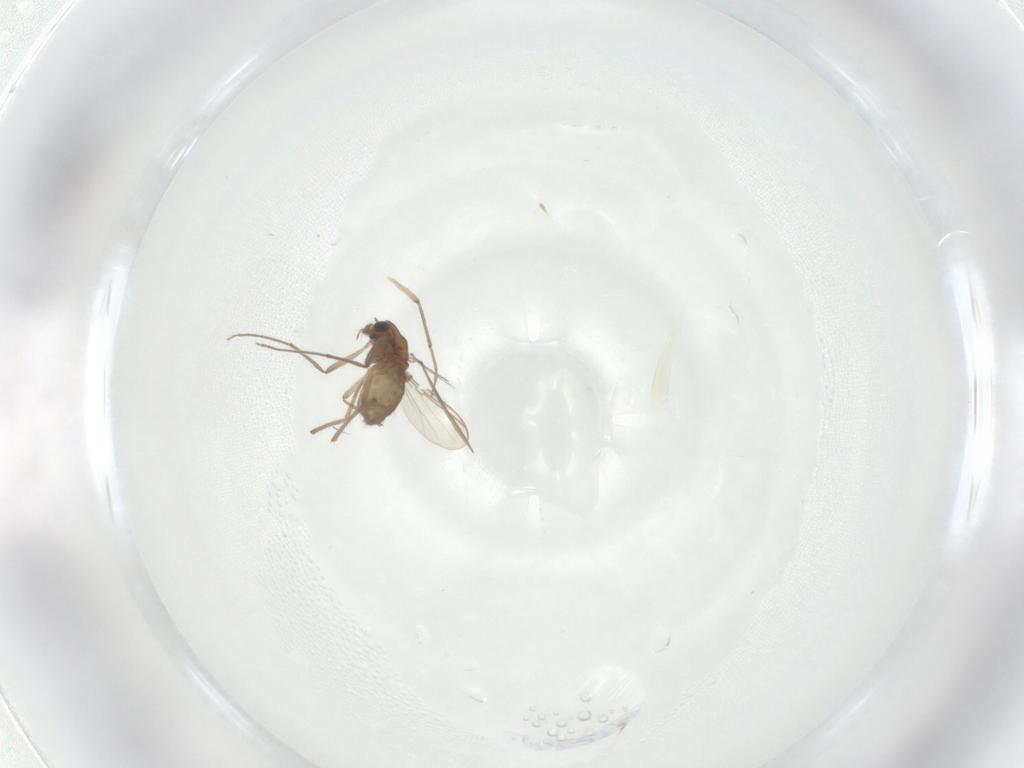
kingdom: Animalia
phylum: Arthropoda
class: Insecta
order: Diptera
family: Chironomidae
